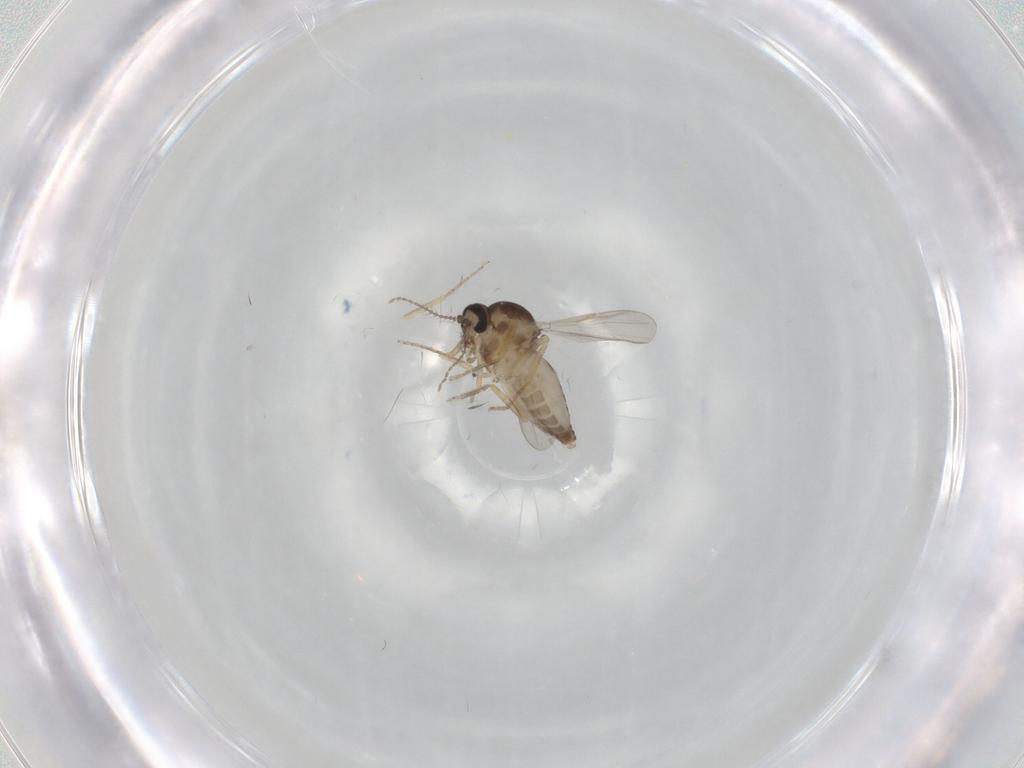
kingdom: Animalia
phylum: Arthropoda
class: Insecta
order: Diptera
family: Ceratopogonidae
